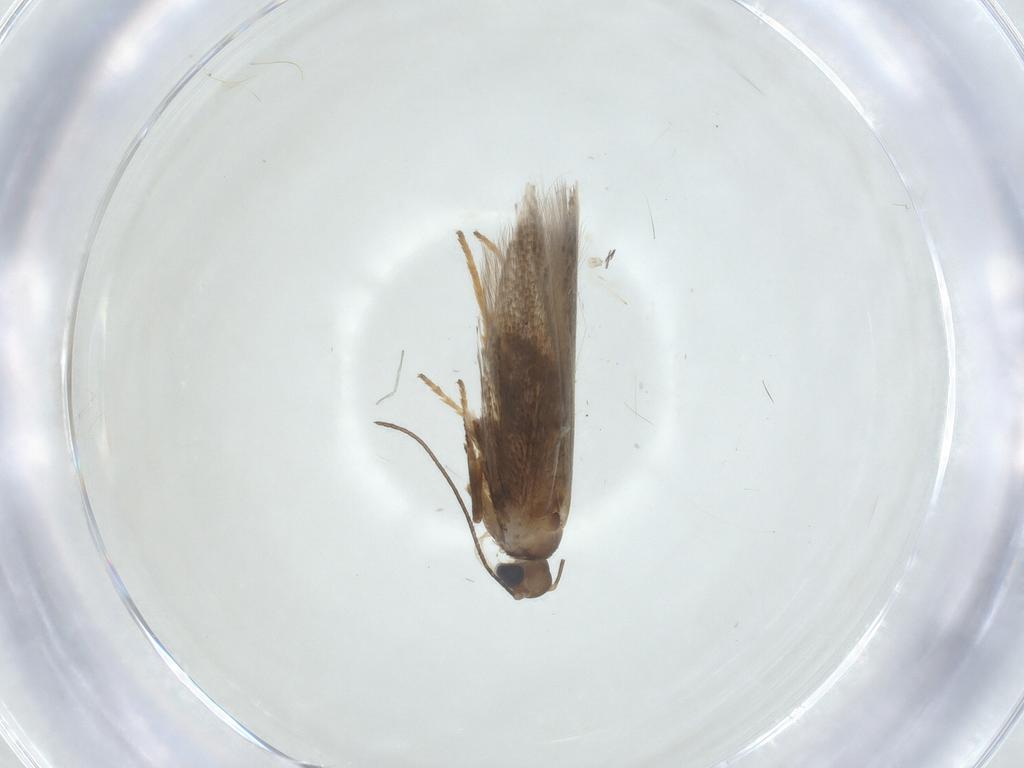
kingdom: Animalia
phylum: Arthropoda
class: Insecta
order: Lepidoptera
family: Tischeriidae
